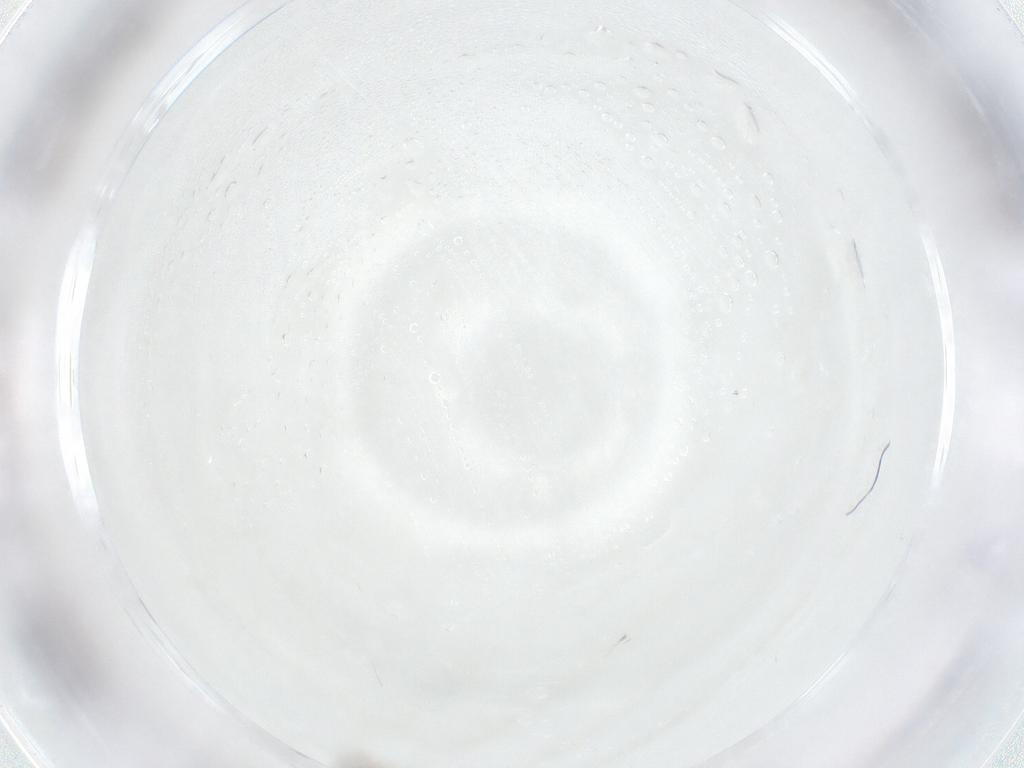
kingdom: Animalia
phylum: Arthropoda
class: Insecta
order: Diptera
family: Sciaridae
